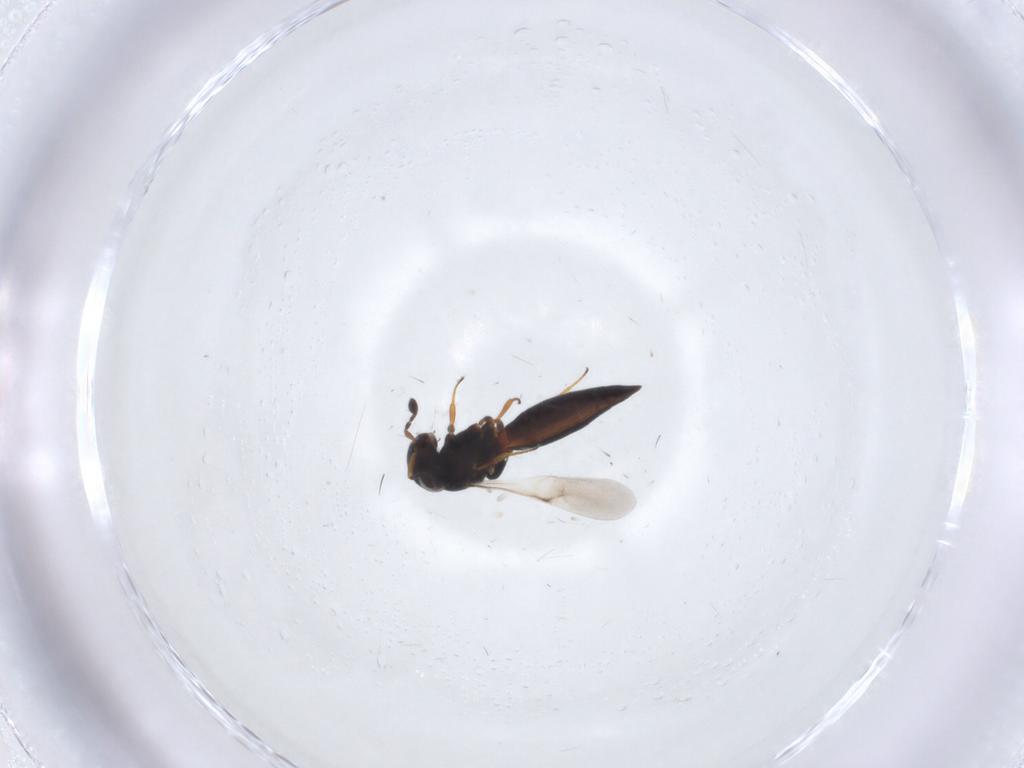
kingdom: Animalia
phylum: Arthropoda
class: Insecta
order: Hymenoptera
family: Scelionidae
